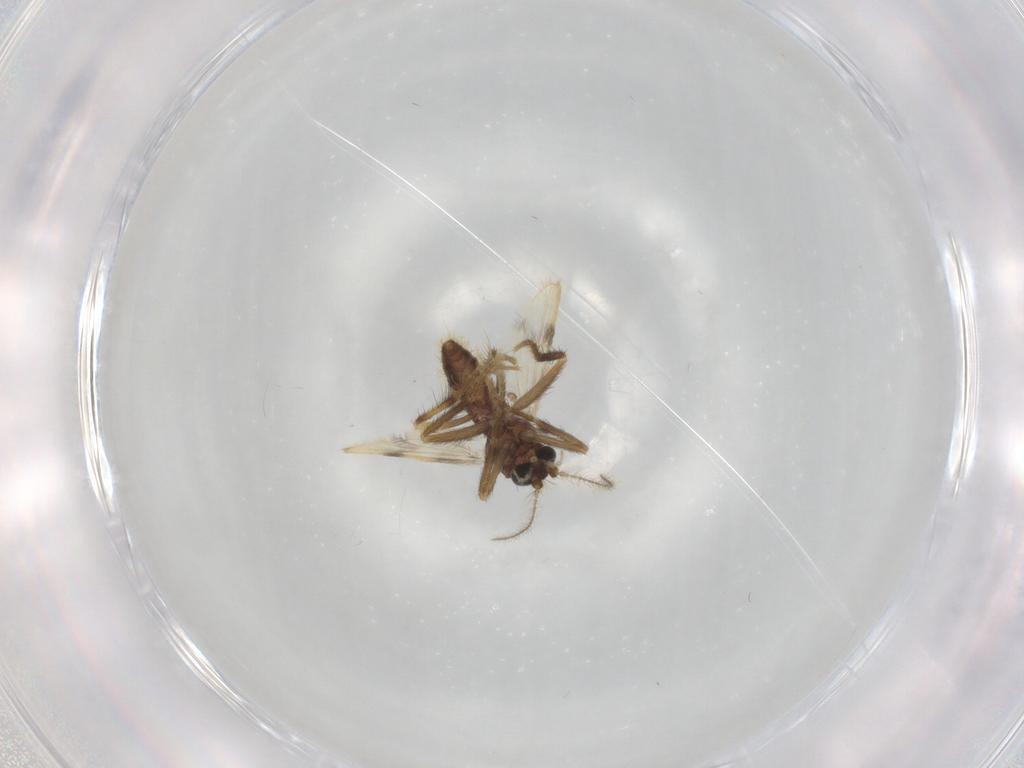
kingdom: Animalia
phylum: Arthropoda
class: Insecta
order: Diptera
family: Corethrellidae
